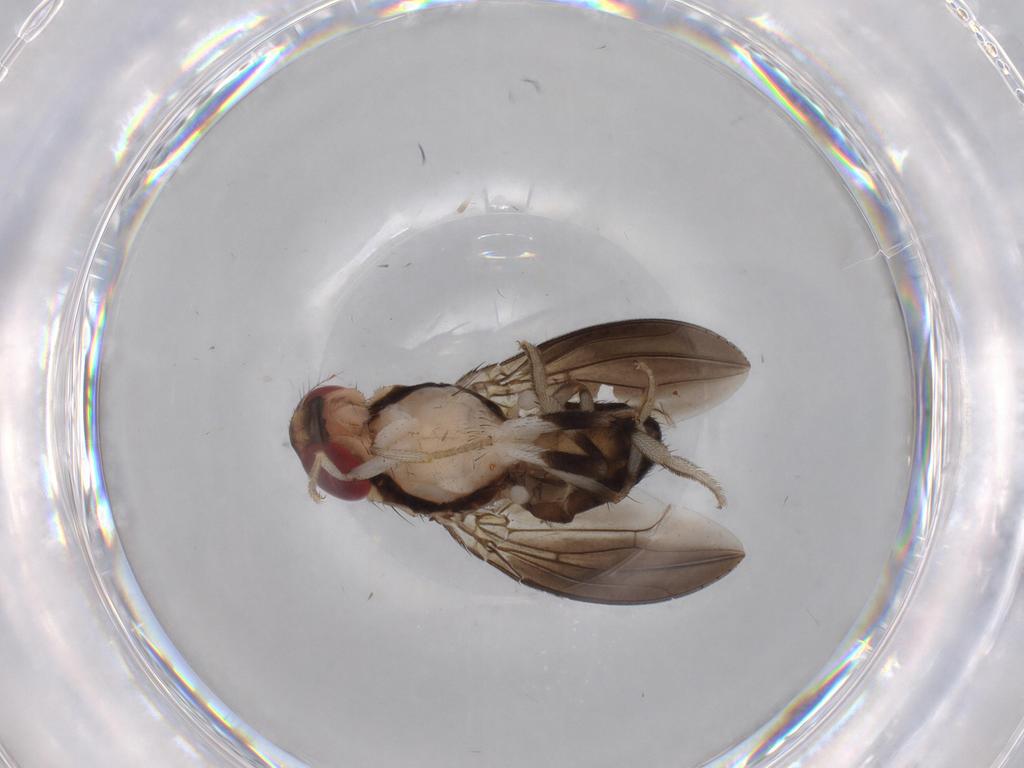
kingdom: Animalia
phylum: Arthropoda
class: Insecta
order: Diptera
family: Drosophilidae
